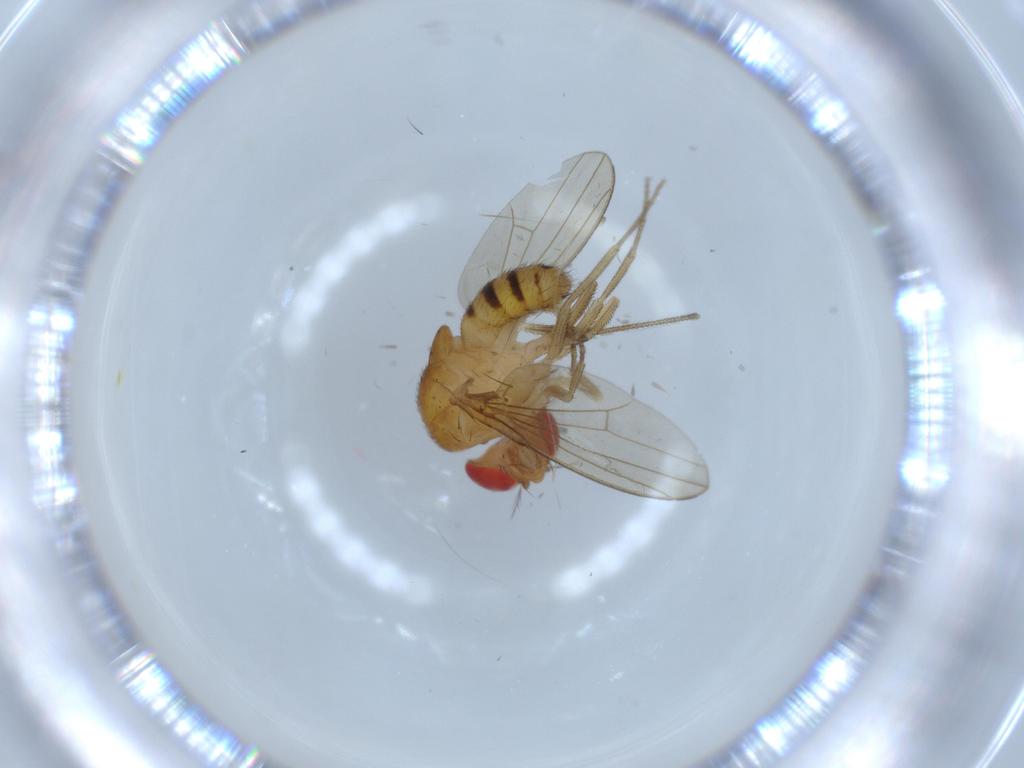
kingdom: Animalia
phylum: Arthropoda
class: Insecta
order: Diptera
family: Drosophilidae
